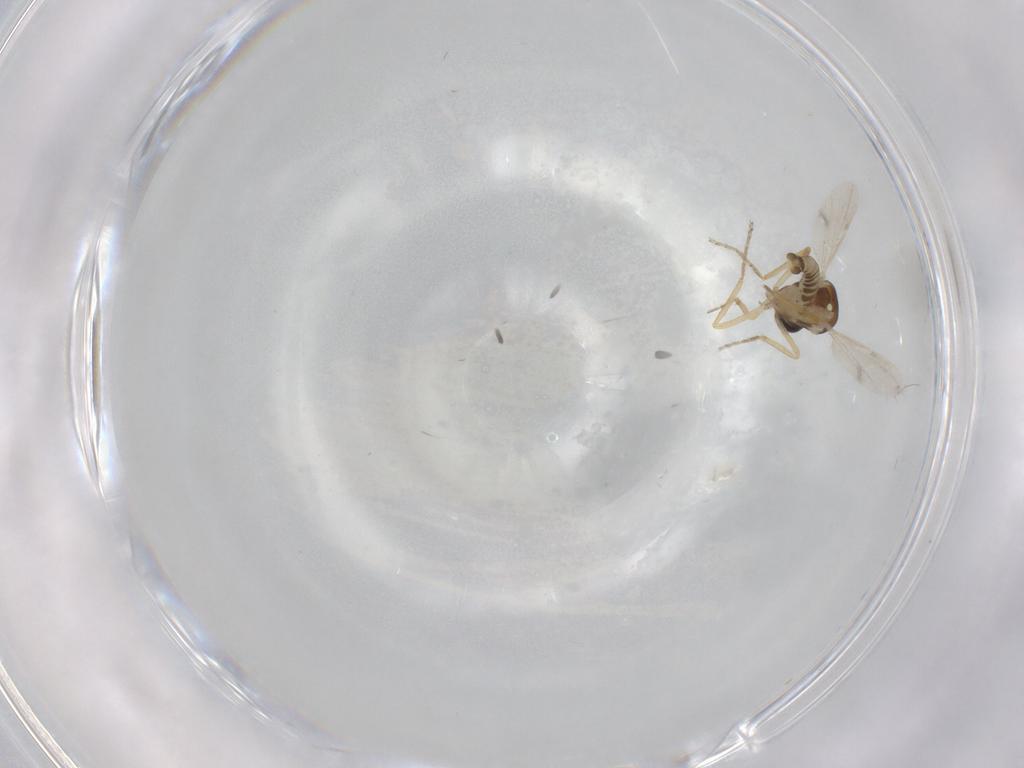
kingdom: Animalia
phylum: Arthropoda
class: Insecta
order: Diptera
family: Ceratopogonidae
